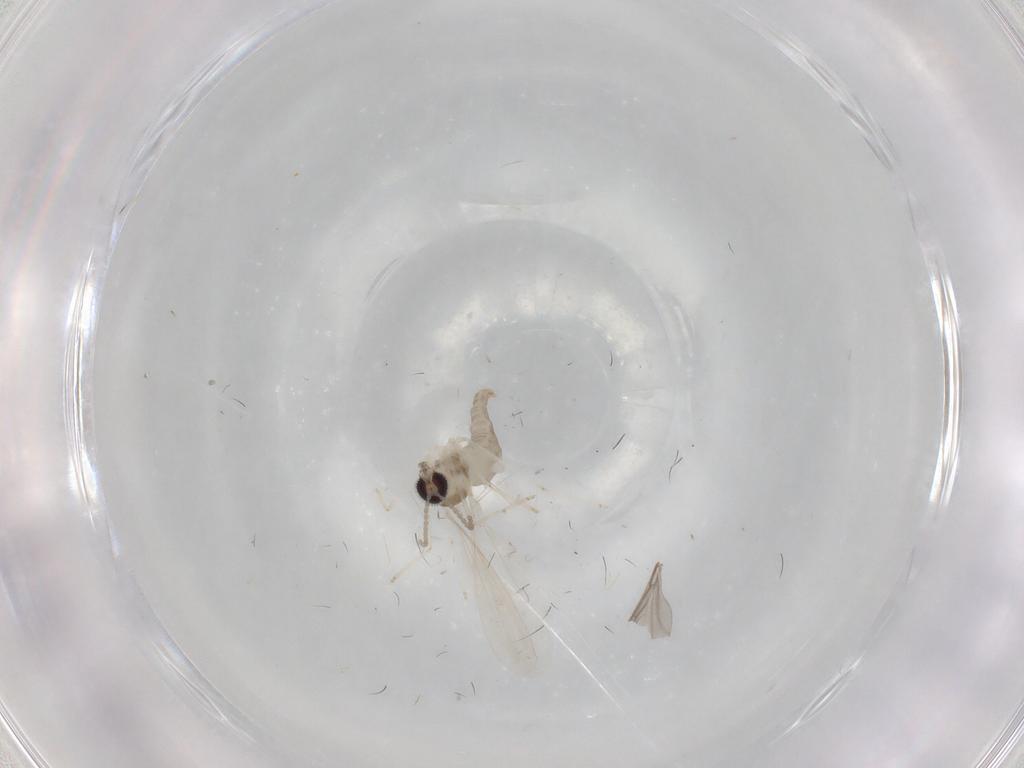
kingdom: Animalia
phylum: Arthropoda
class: Insecta
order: Diptera
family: Cecidomyiidae
